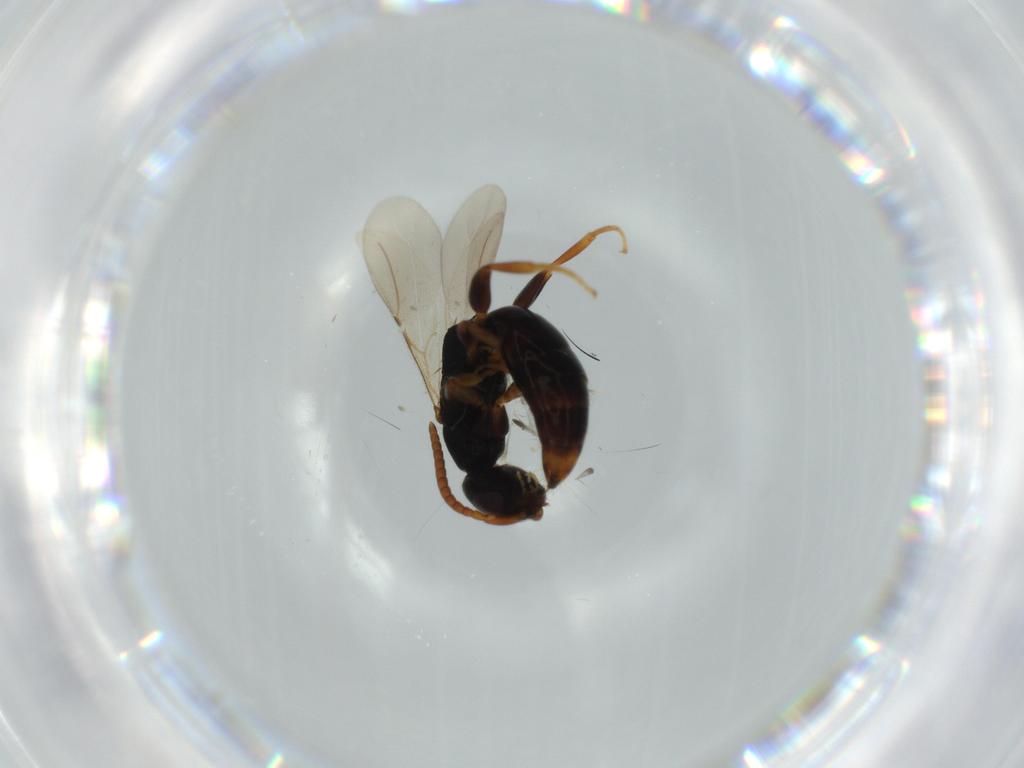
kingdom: Animalia
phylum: Arthropoda
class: Insecta
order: Hymenoptera
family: Bethylidae
